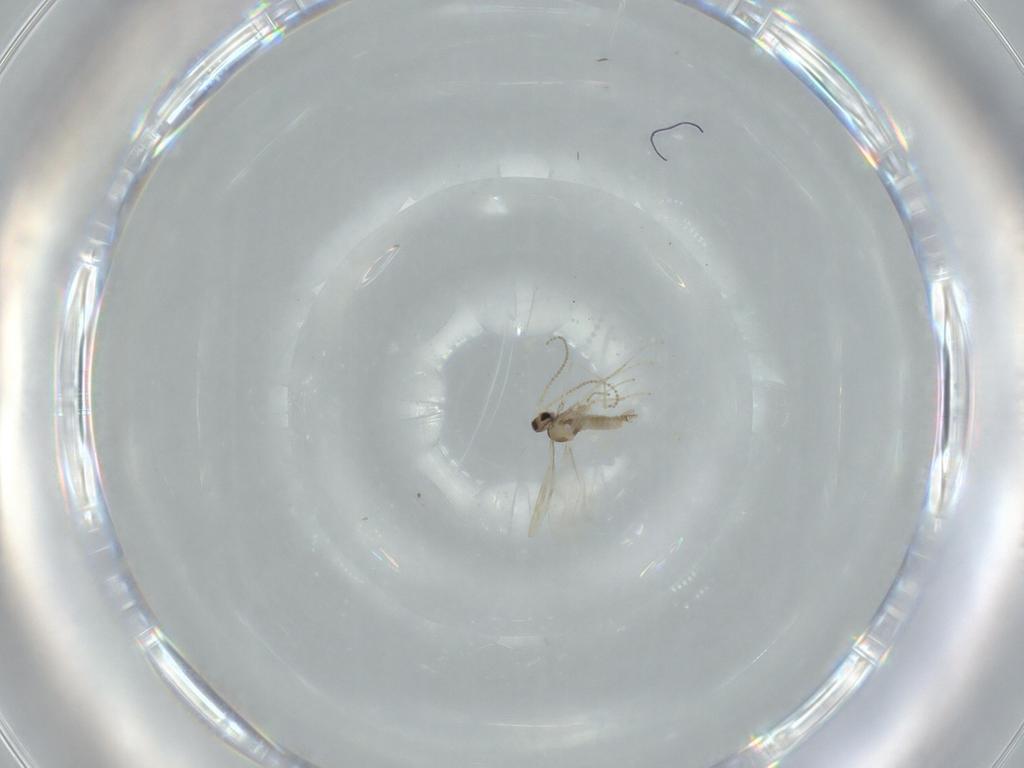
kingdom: Animalia
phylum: Arthropoda
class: Insecta
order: Diptera
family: Cecidomyiidae
